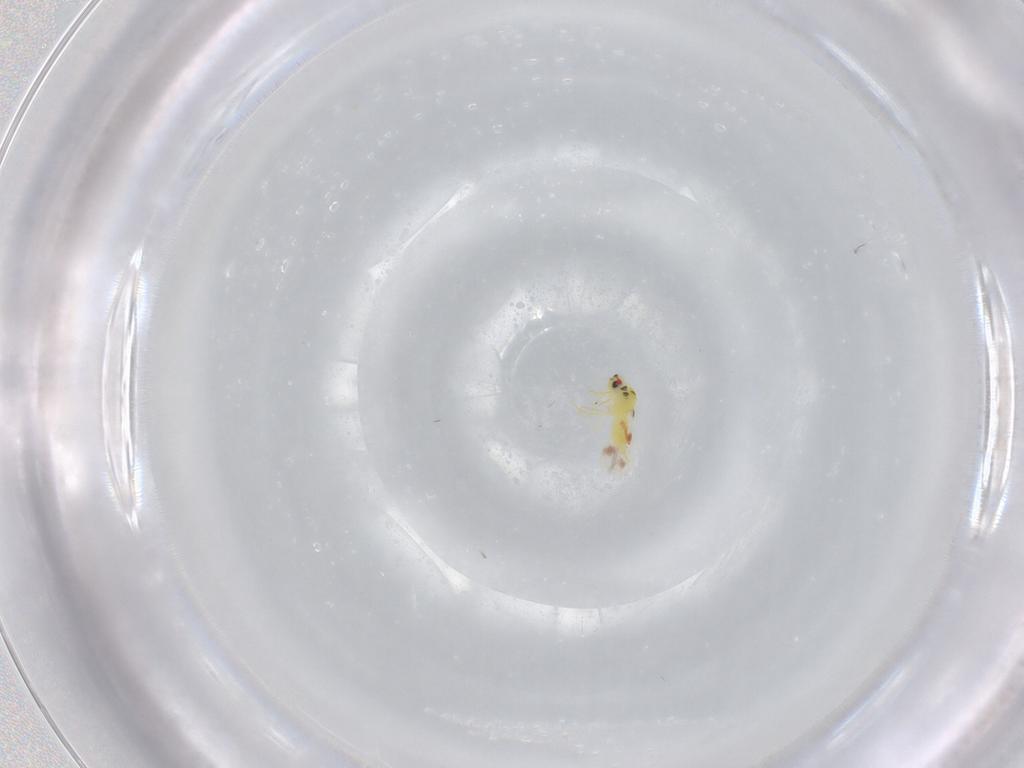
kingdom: Animalia
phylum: Arthropoda
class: Insecta
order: Hemiptera
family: Aleyrodidae
